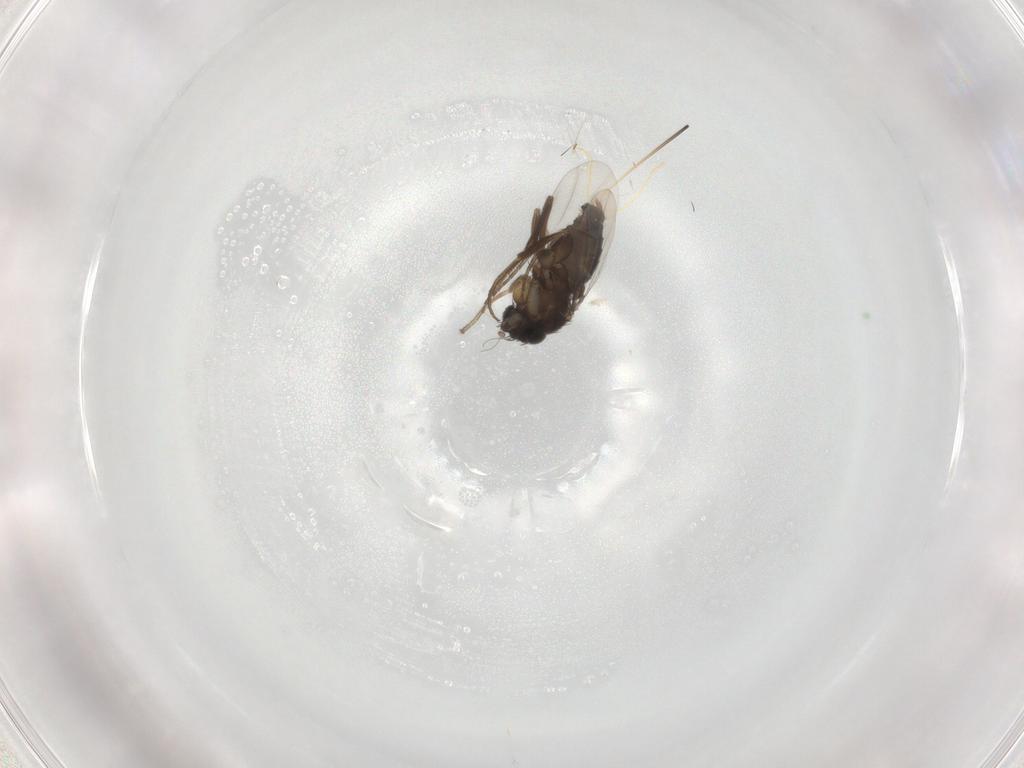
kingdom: Animalia
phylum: Arthropoda
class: Insecta
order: Diptera
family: Phoridae
